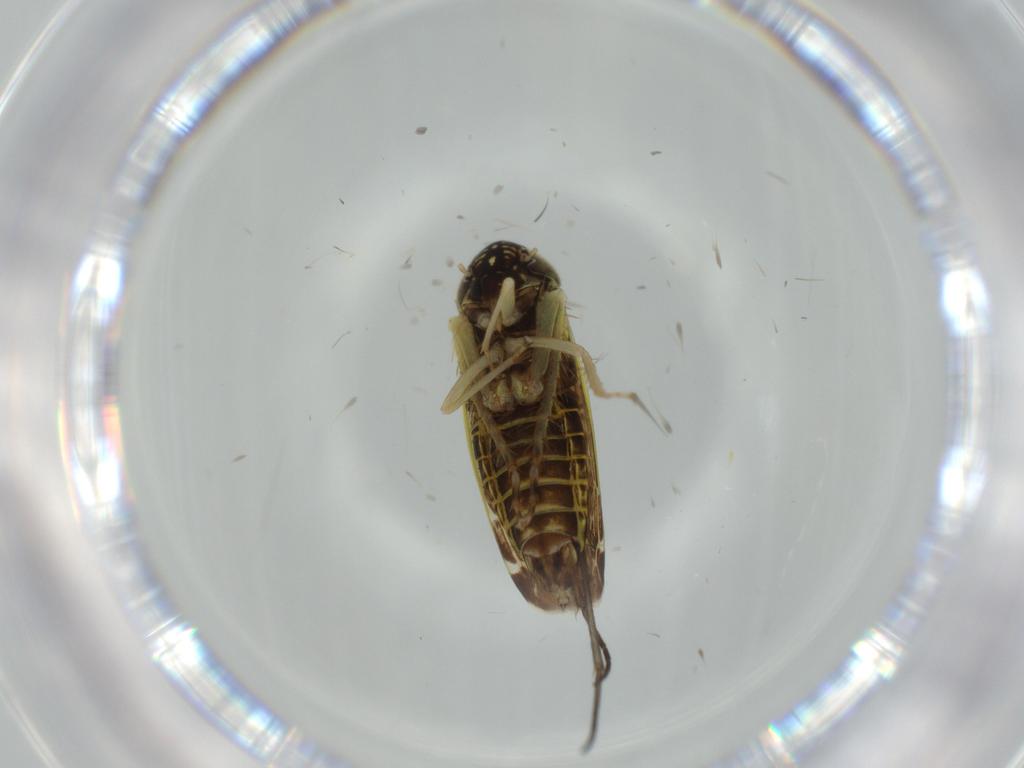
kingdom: Animalia
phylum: Arthropoda
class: Insecta
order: Hemiptera
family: Cicadellidae
